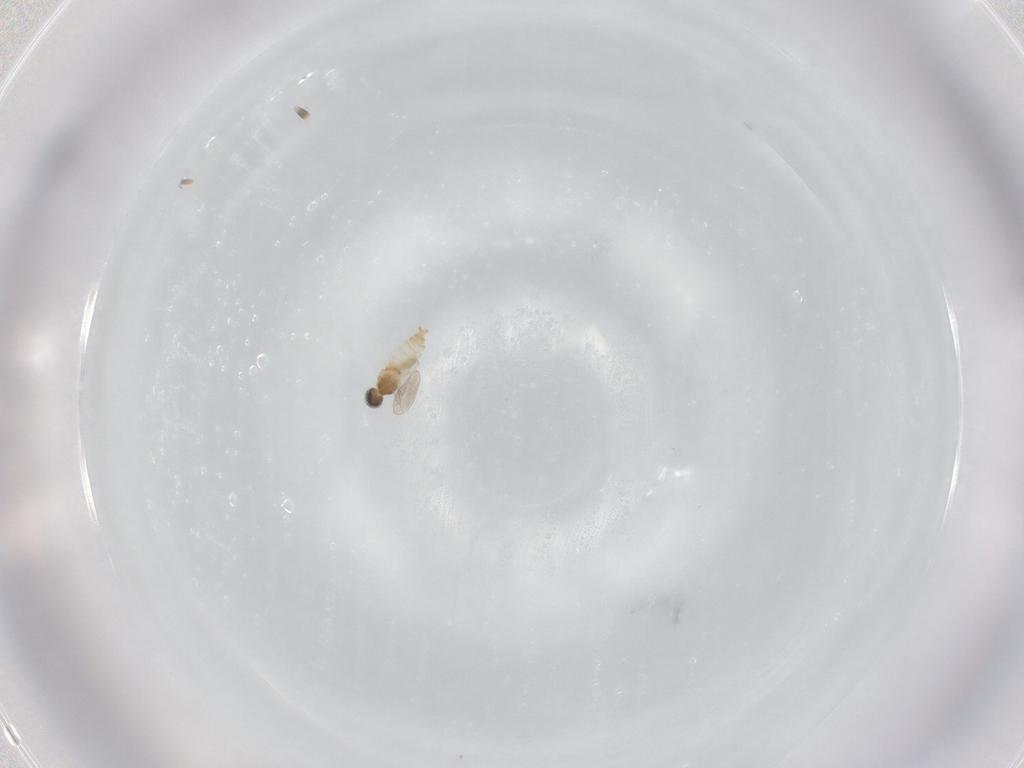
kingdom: Animalia
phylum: Arthropoda
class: Insecta
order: Diptera
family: Cecidomyiidae
